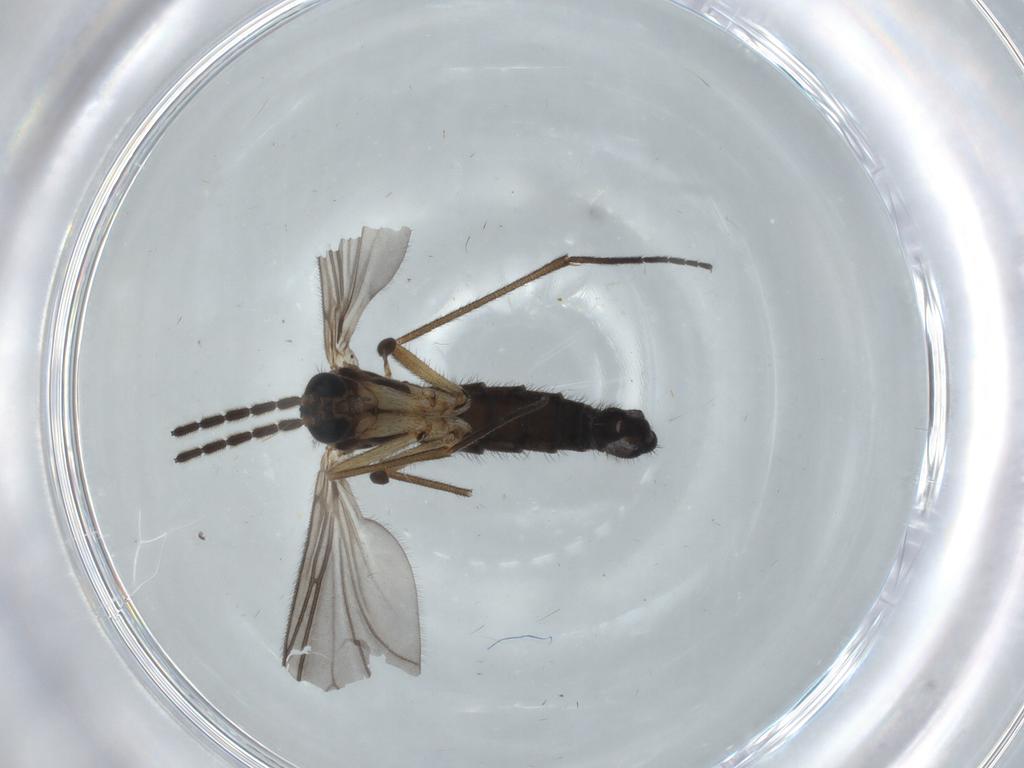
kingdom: Animalia
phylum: Arthropoda
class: Insecta
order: Diptera
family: Sciaridae
